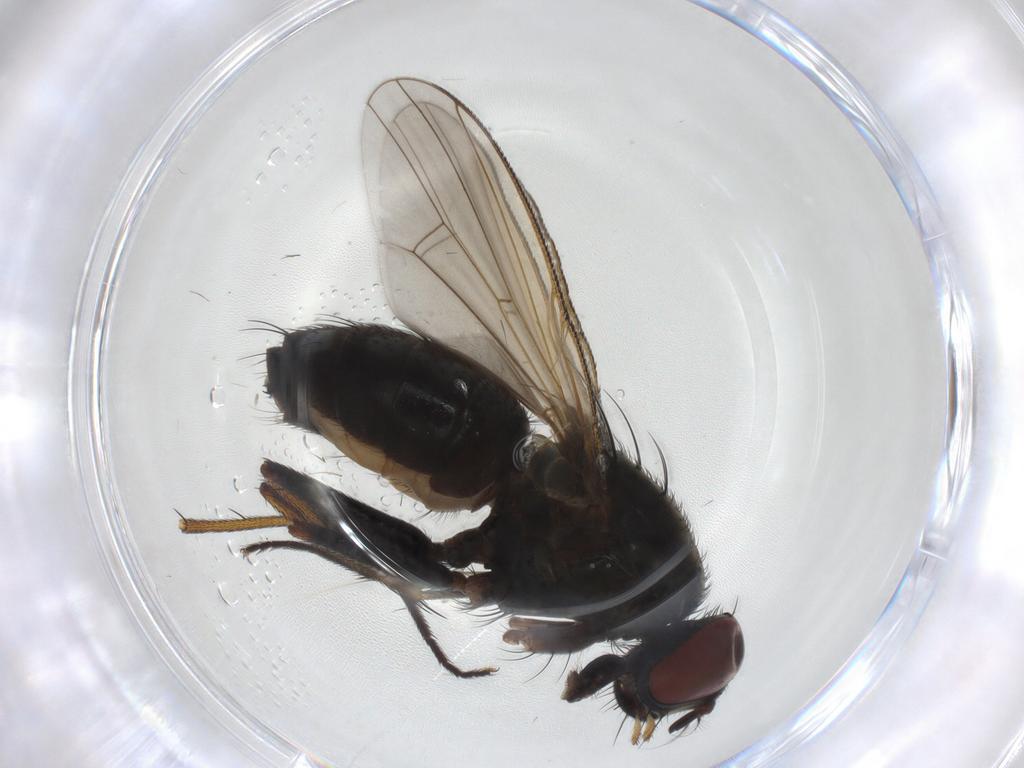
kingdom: Animalia
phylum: Arthropoda
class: Insecta
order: Diptera
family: Muscidae
